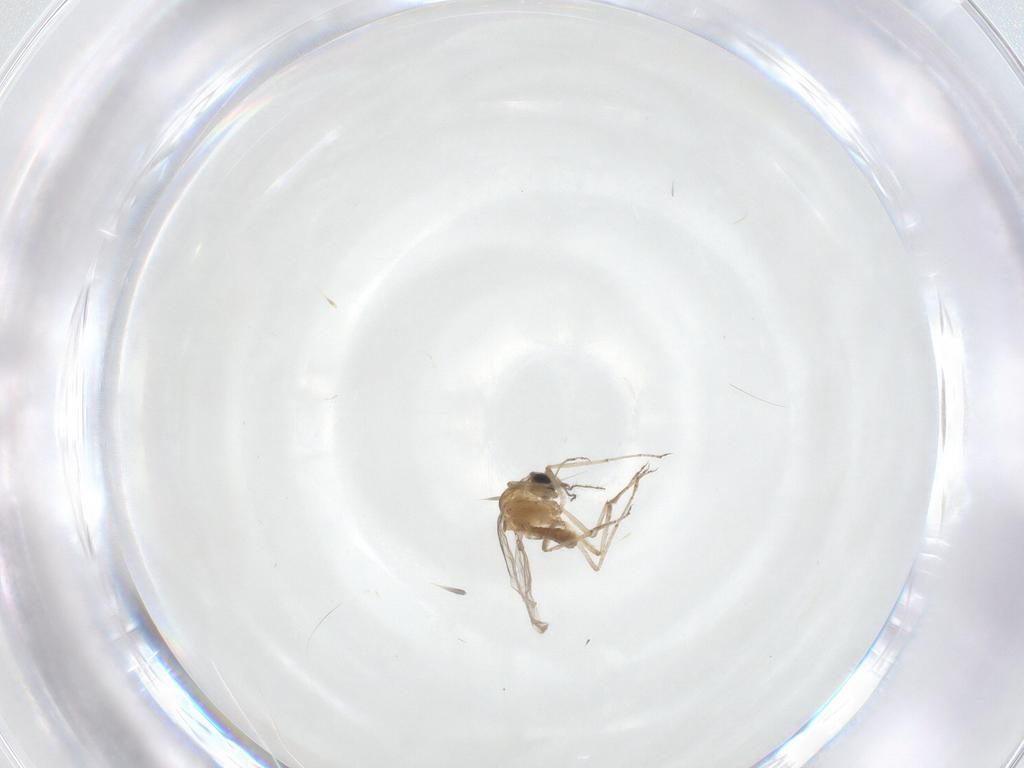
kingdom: Animalia
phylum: Arthropoda
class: Insecta
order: Diptera
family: Ceratopogonidae
